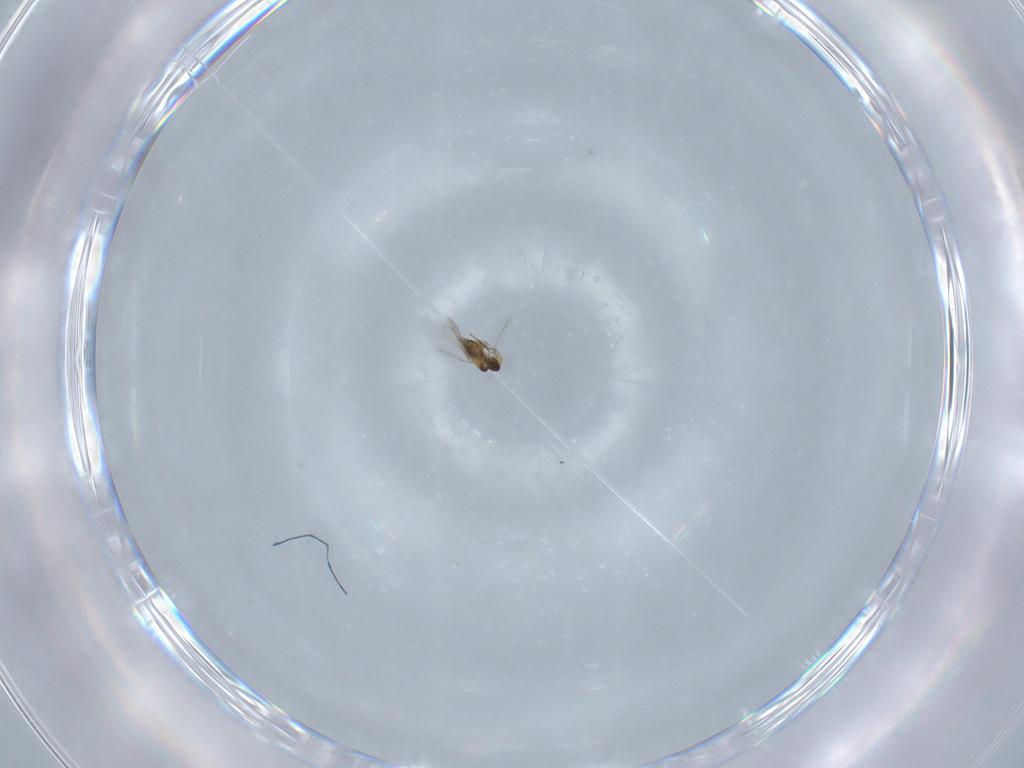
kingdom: Animalia
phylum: Arthropoda
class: Insecta
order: Hymenoptera
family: Mymaridae
